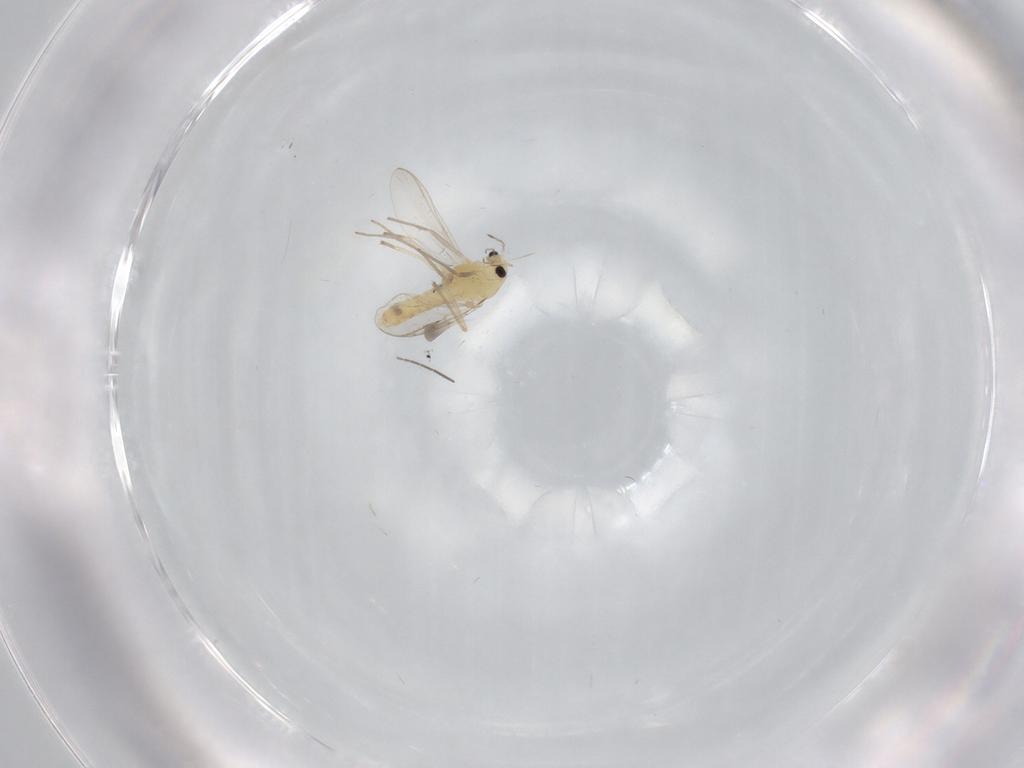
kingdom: Animalia
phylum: Arthropoda
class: Insecta
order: Diptera
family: Chironomidae
